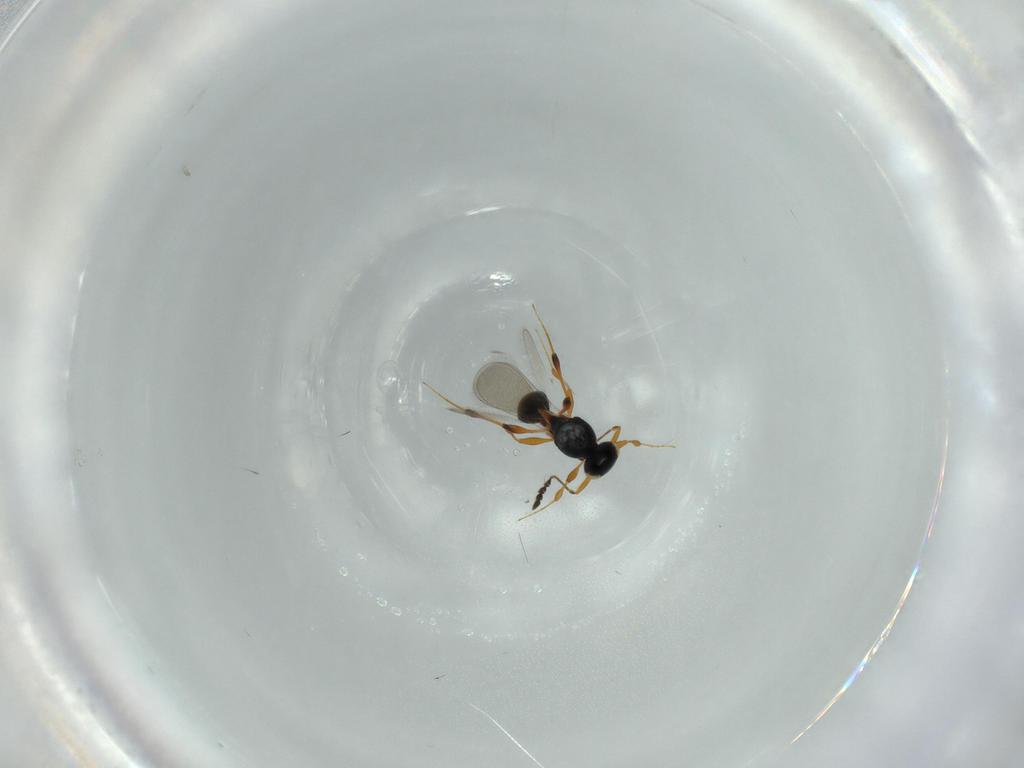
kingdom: Animalia
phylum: Arthropoda
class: Insecta
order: Hymenoptera
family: Platygastridae
